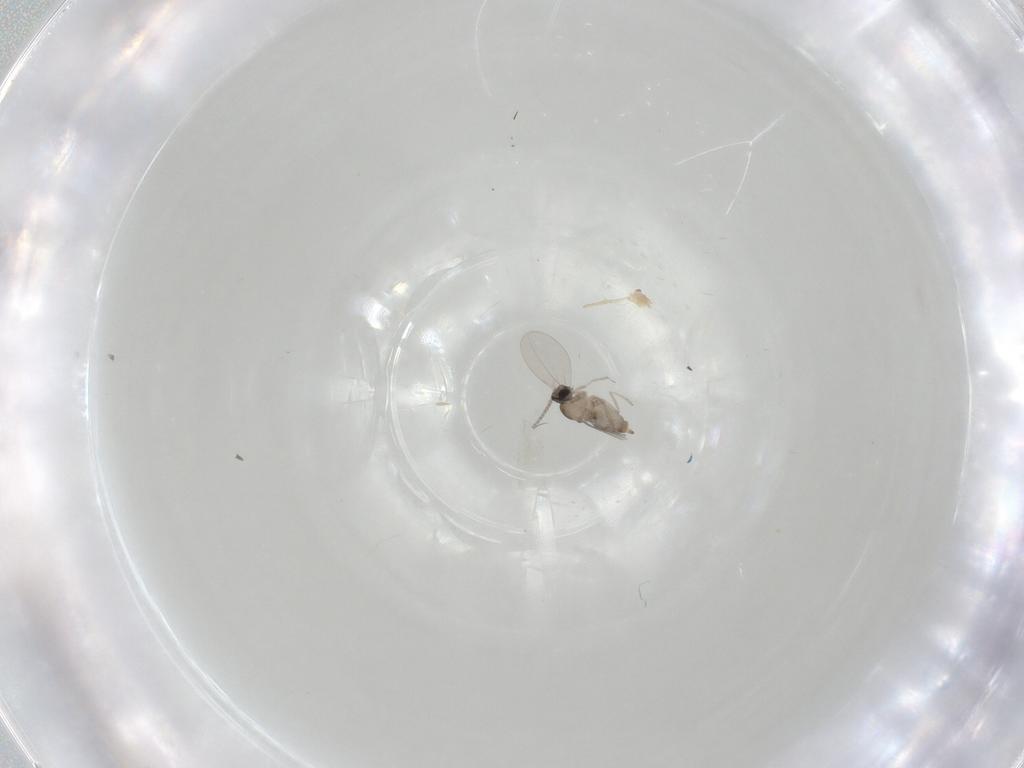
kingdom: Animalia
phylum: Arthropoda
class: Insecta
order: Diptera
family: Cecidomyiidae
